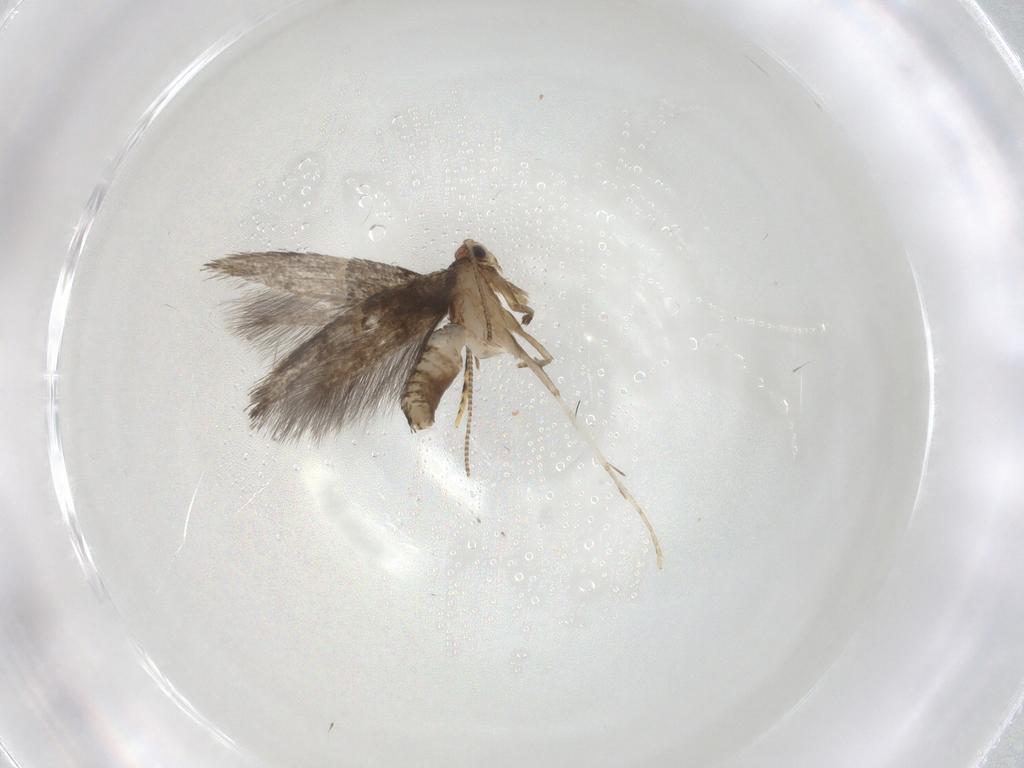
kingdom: Animalia
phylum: Arthropoda
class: Insecta
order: Lepidoptera
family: Tineidae
